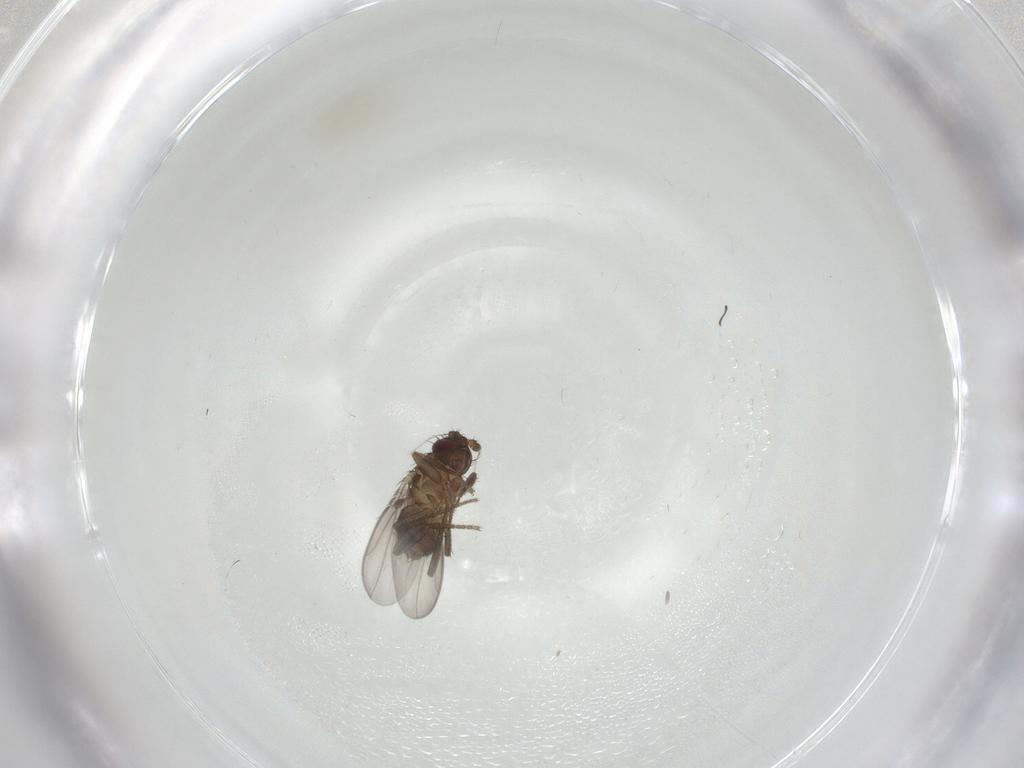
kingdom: Animalia
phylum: Arthropoda
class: Insecta
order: Diptera
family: Sphaeroceridae
